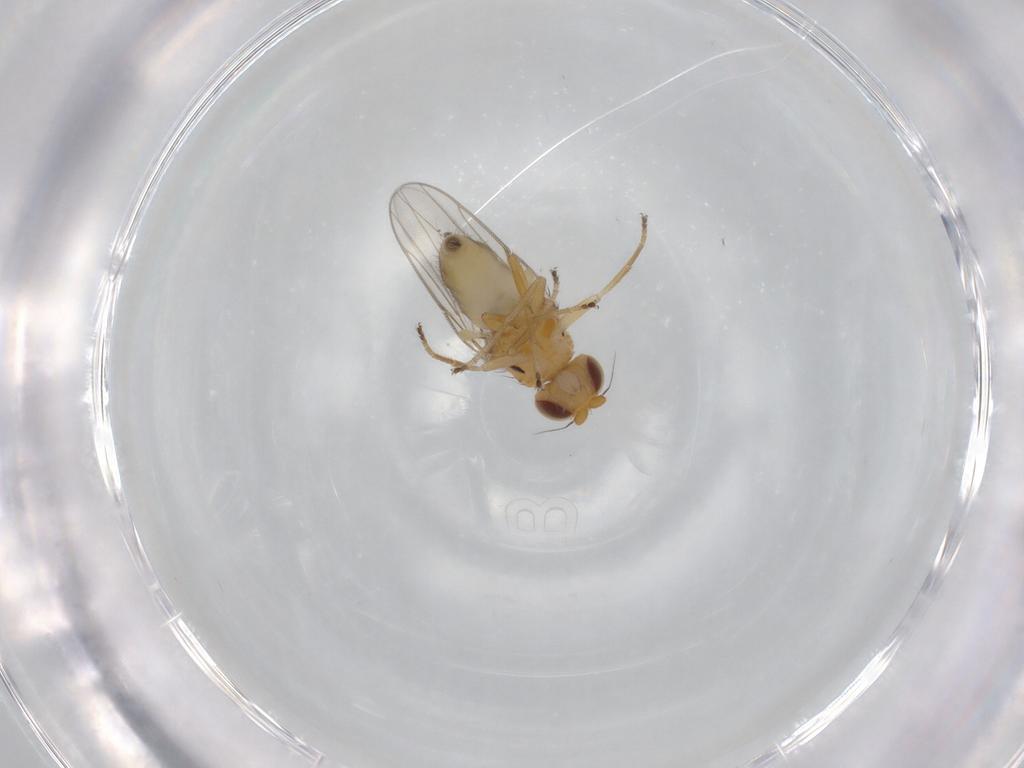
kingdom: Animalia
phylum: Arthropoda
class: Insecta
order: Diptera
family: Chloropidae
